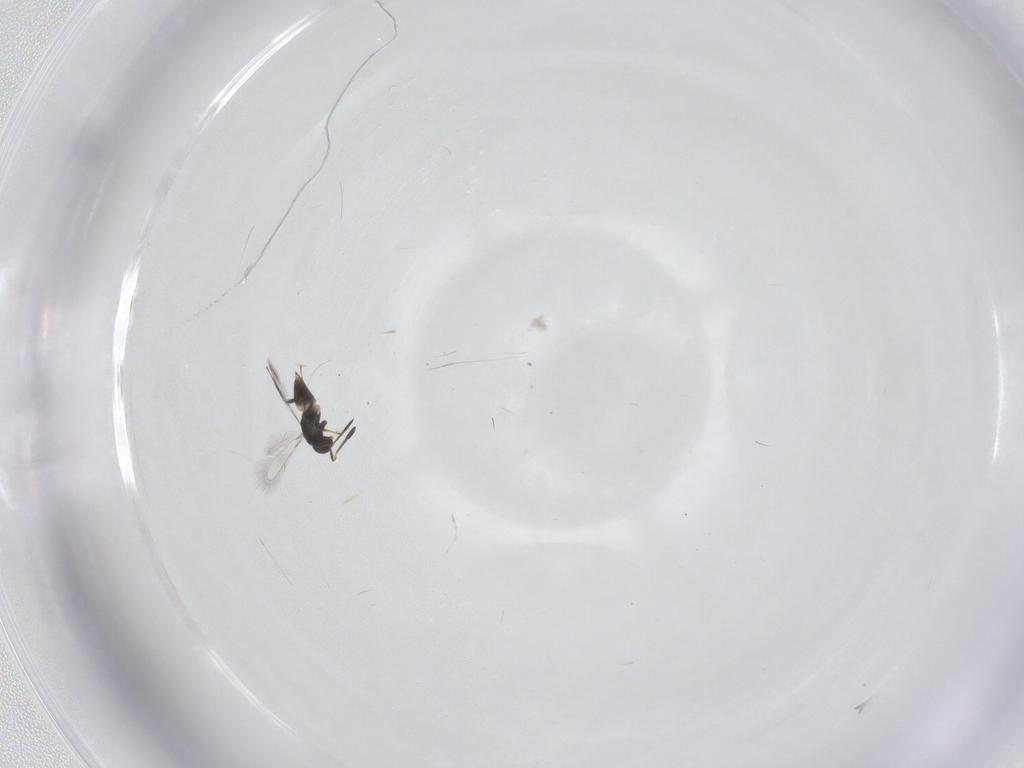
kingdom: Animalia
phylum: Arthropoda
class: Insecta
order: Hymenoptera
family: Mymaridae
